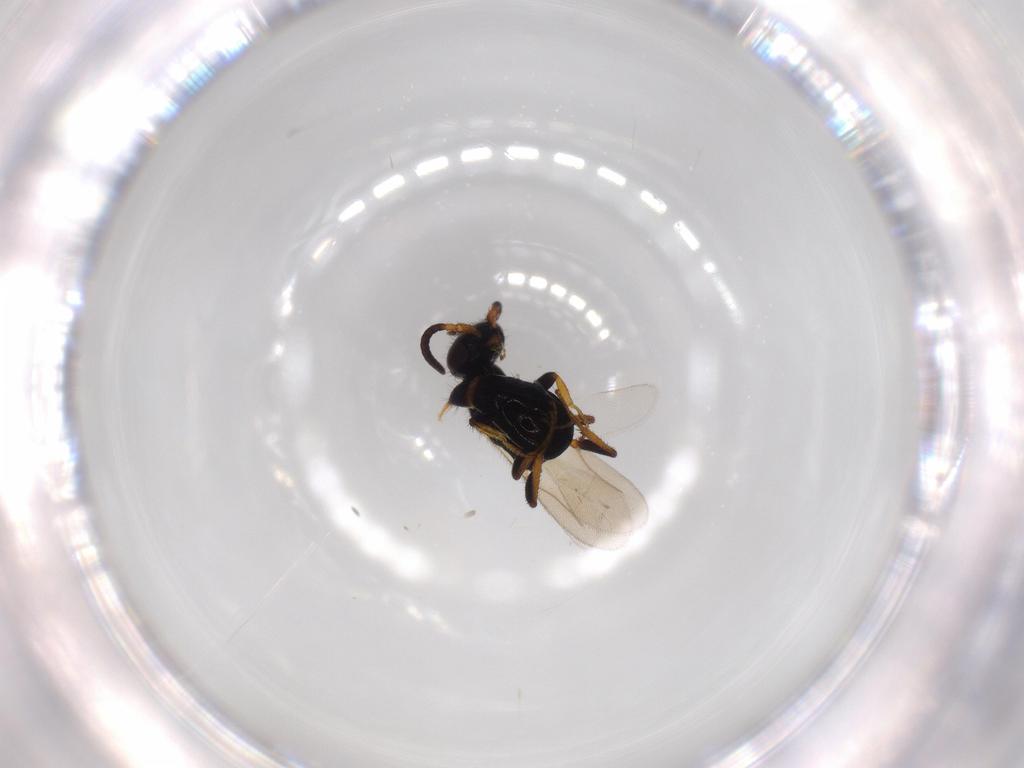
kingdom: Animalia
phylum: Arthropoda
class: Insecta
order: Hymenoptera
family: Bethylidae
